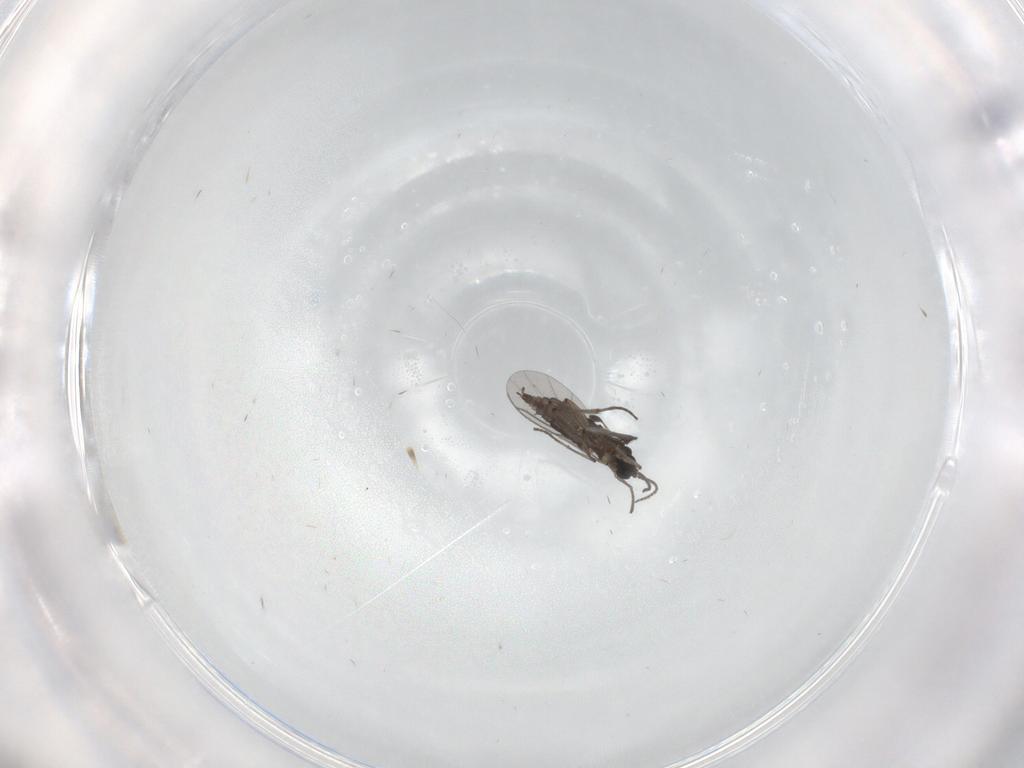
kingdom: Animalia
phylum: Arthropoda
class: Insecta
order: Diptera
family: Sciaridae
